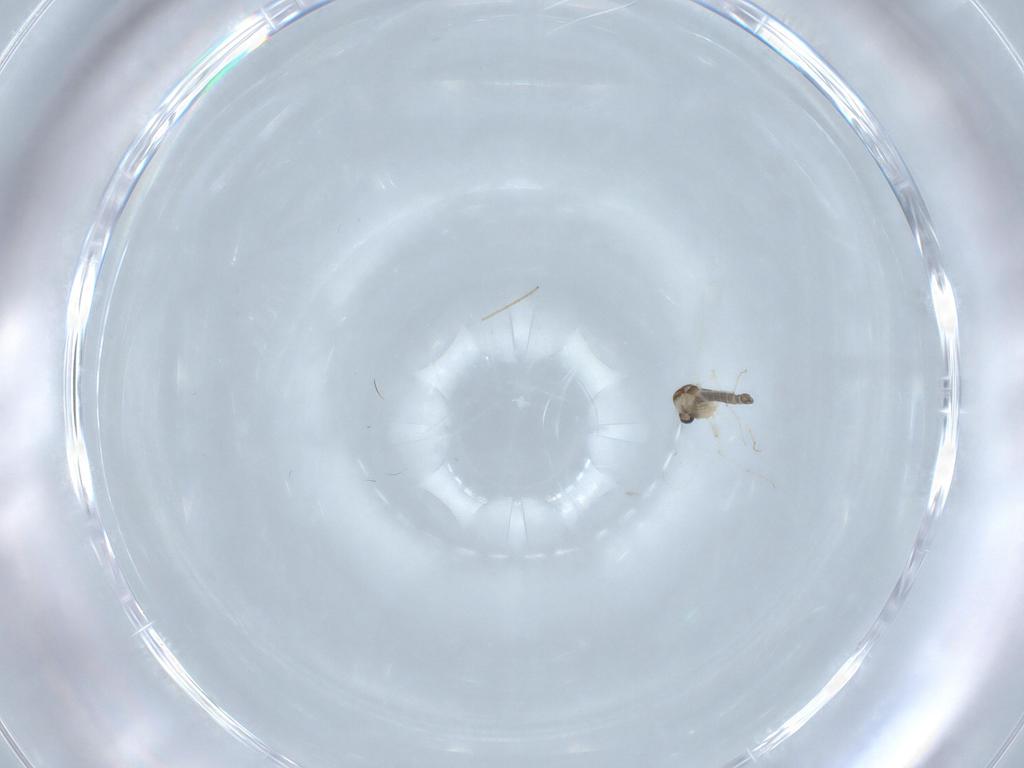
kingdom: Animalia
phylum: Arthropoda
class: Insecta
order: Diptera
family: Chironomidae
